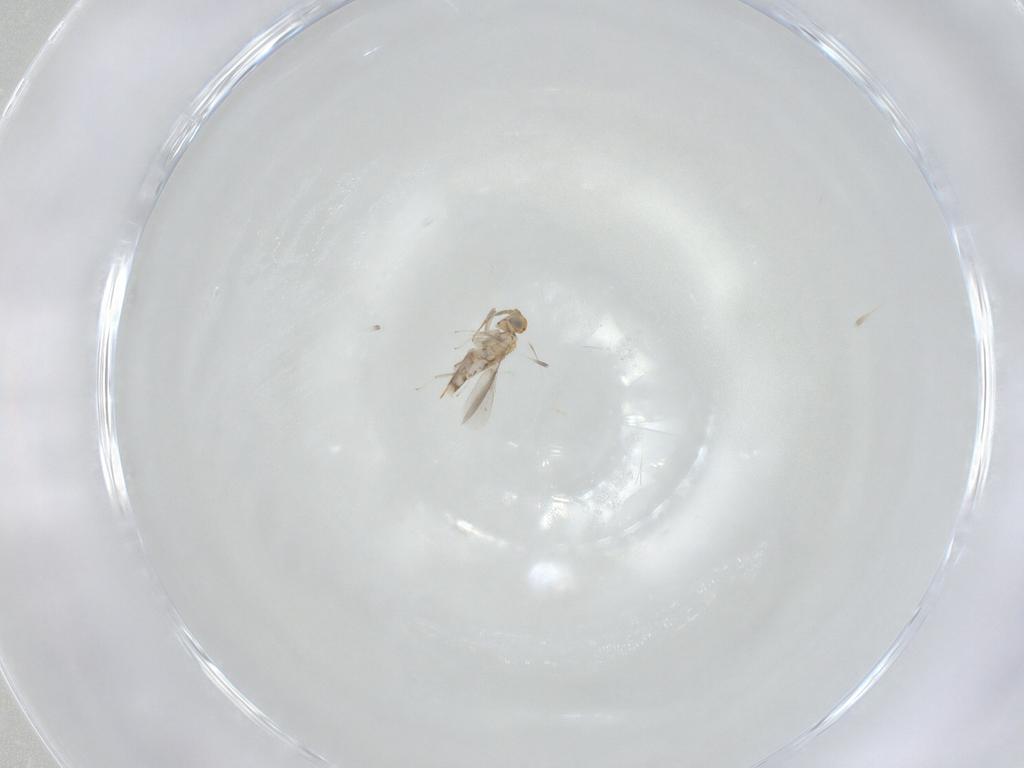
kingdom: Animalia
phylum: Arthropoda
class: Insecta
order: Hymenoptera
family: Aphelinidae
